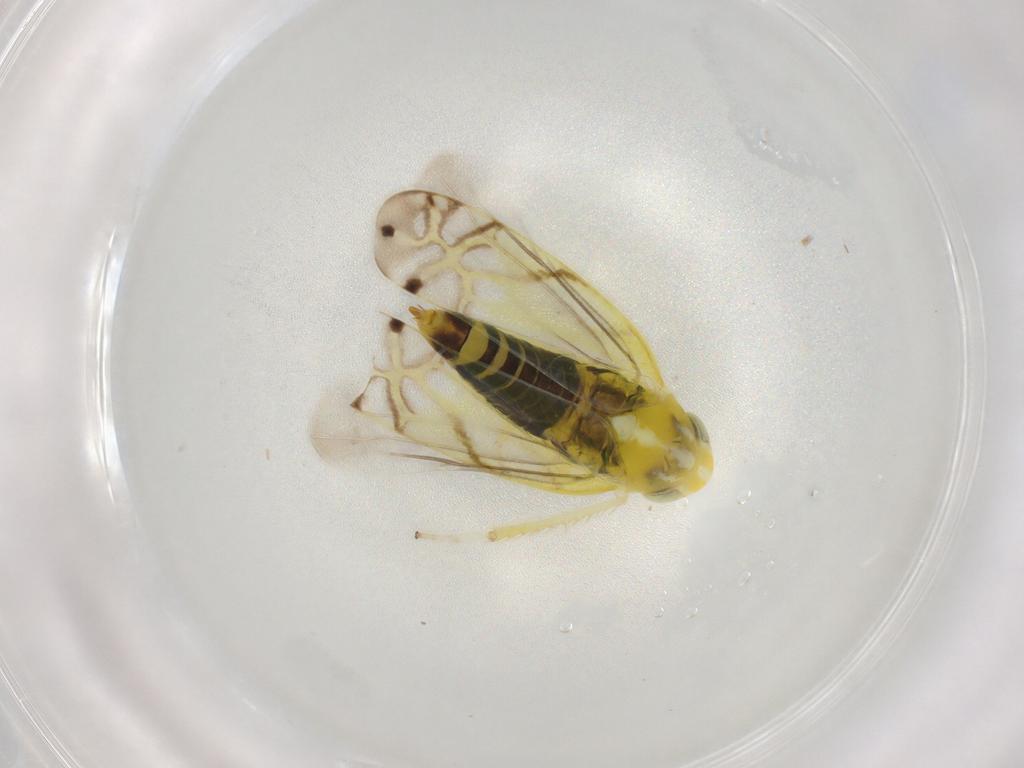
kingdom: Animalia
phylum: Arthropoda
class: Insecta
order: Hemiptera
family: Cicadellidae
